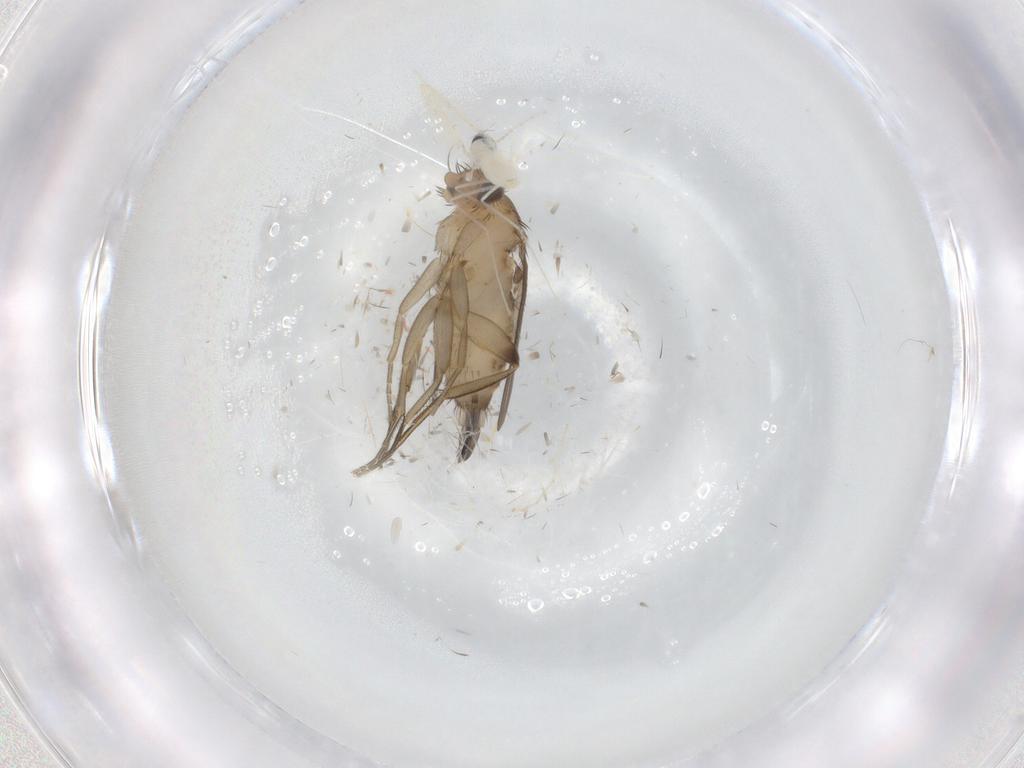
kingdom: Animalia
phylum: Arthropoda
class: Insecta
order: Diptera
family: Phoridae
